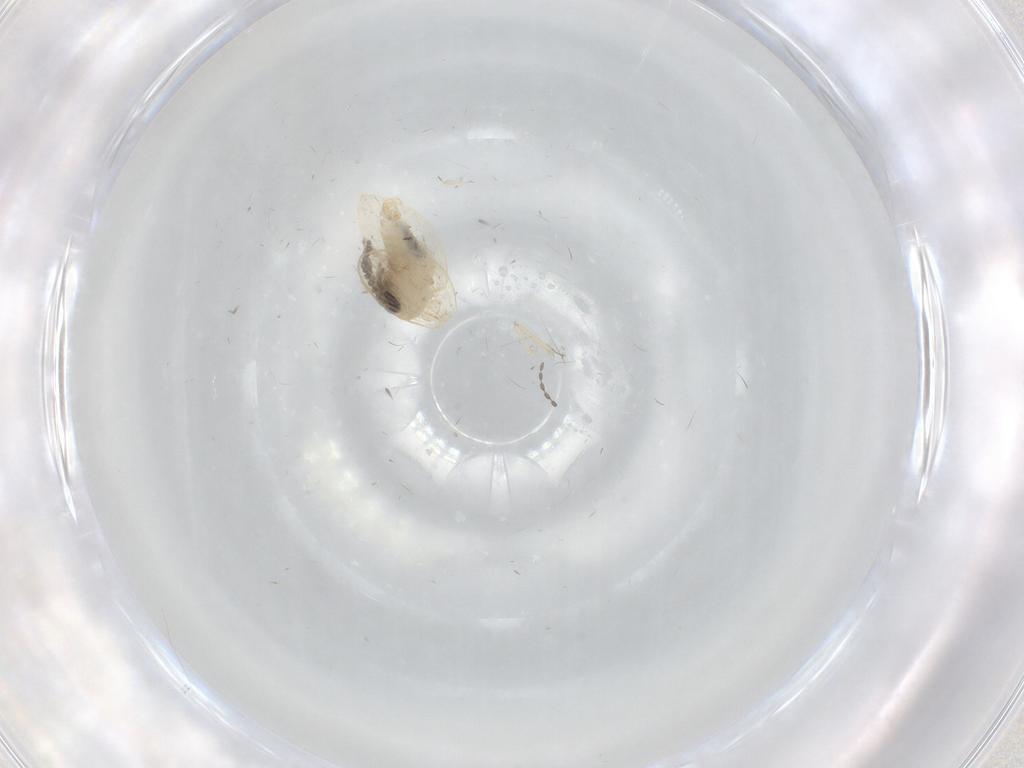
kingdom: Animalia
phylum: Arthropoda
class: Insecta
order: Diptera
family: Psychodidae
